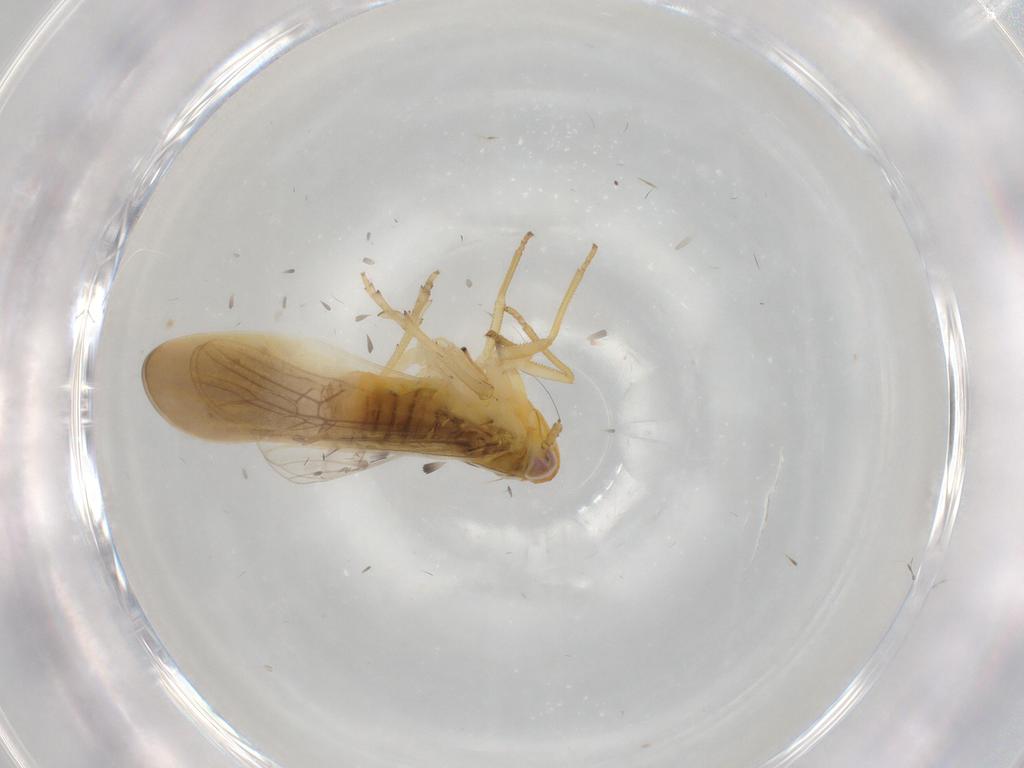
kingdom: Animalia
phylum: Arthropoda
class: Insecta
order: Hemiptera
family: Delphacidae
